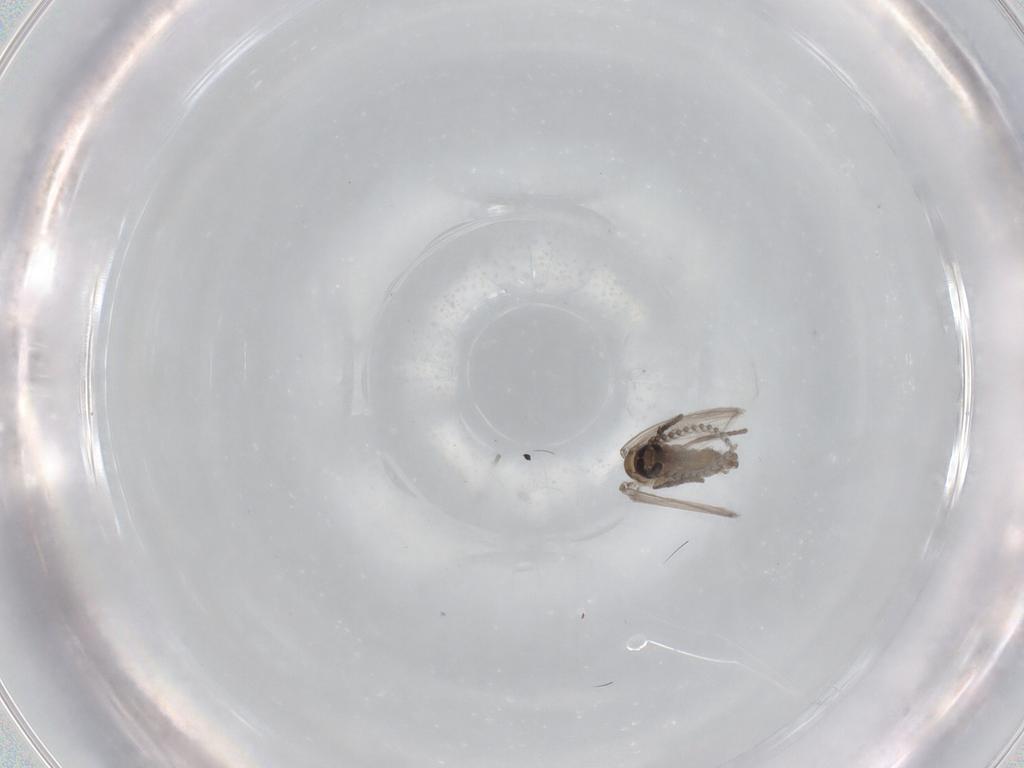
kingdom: Animalia
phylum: Arthropoda
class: Insecta
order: Diptera
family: Psychodidae
